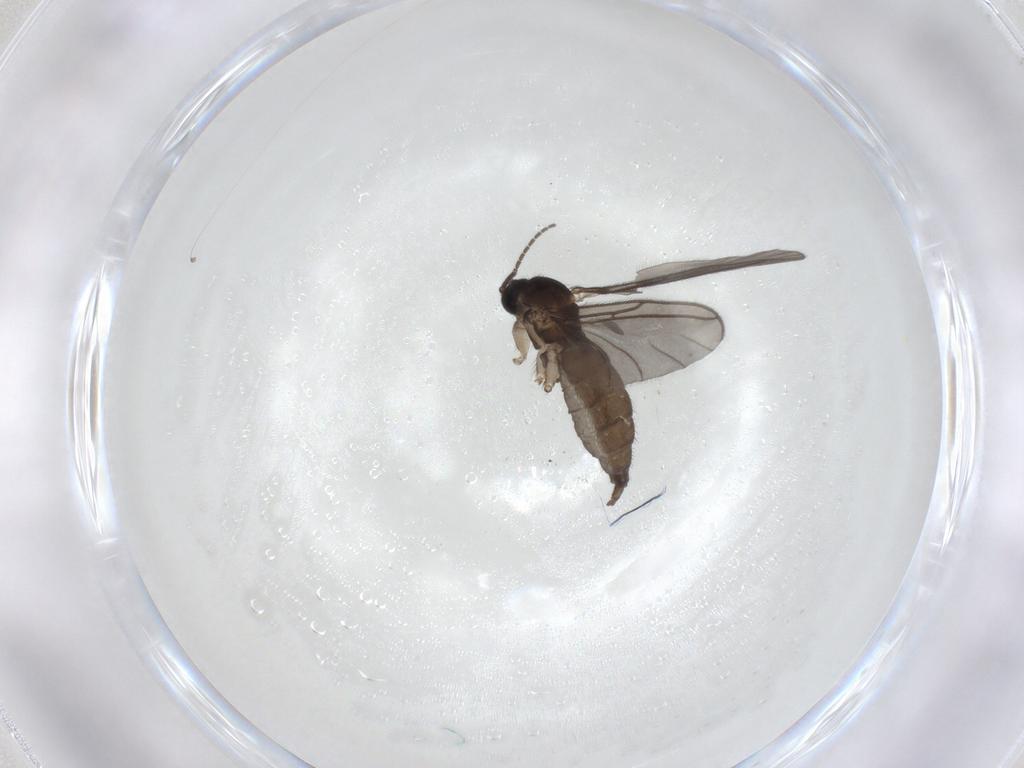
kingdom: Animalia
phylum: Arthropoda
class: Insecta
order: Diptera
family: Sciaridae
